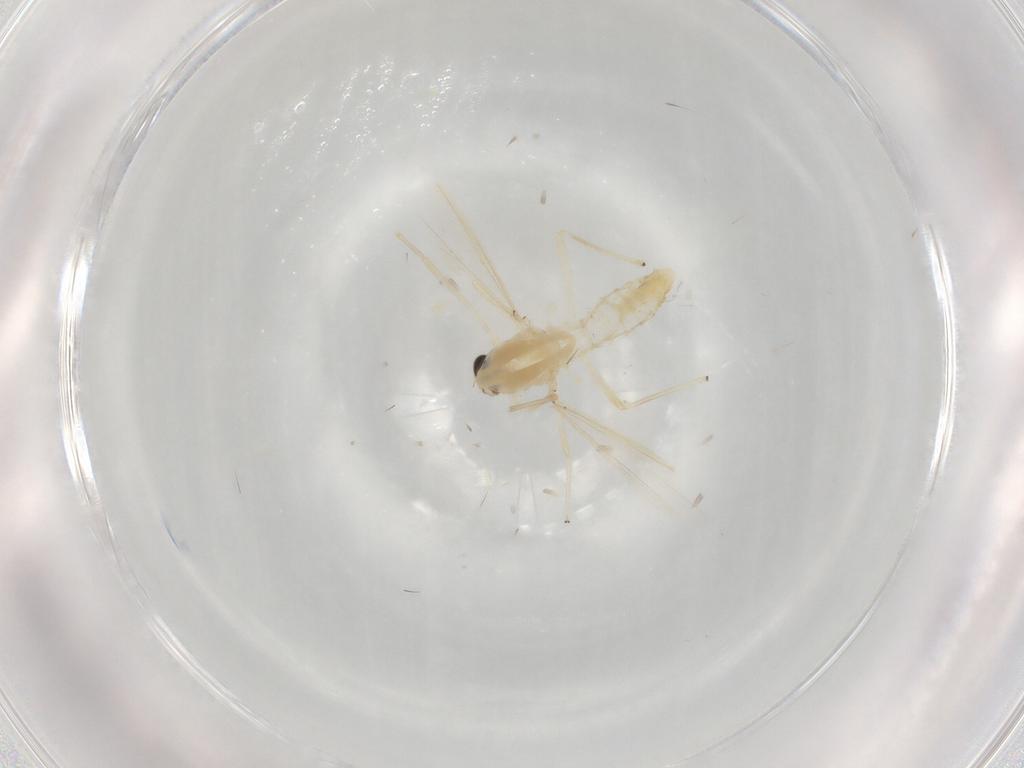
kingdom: Animalia
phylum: Arthropoda
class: Insecta
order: Diptera
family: Chironomidae
